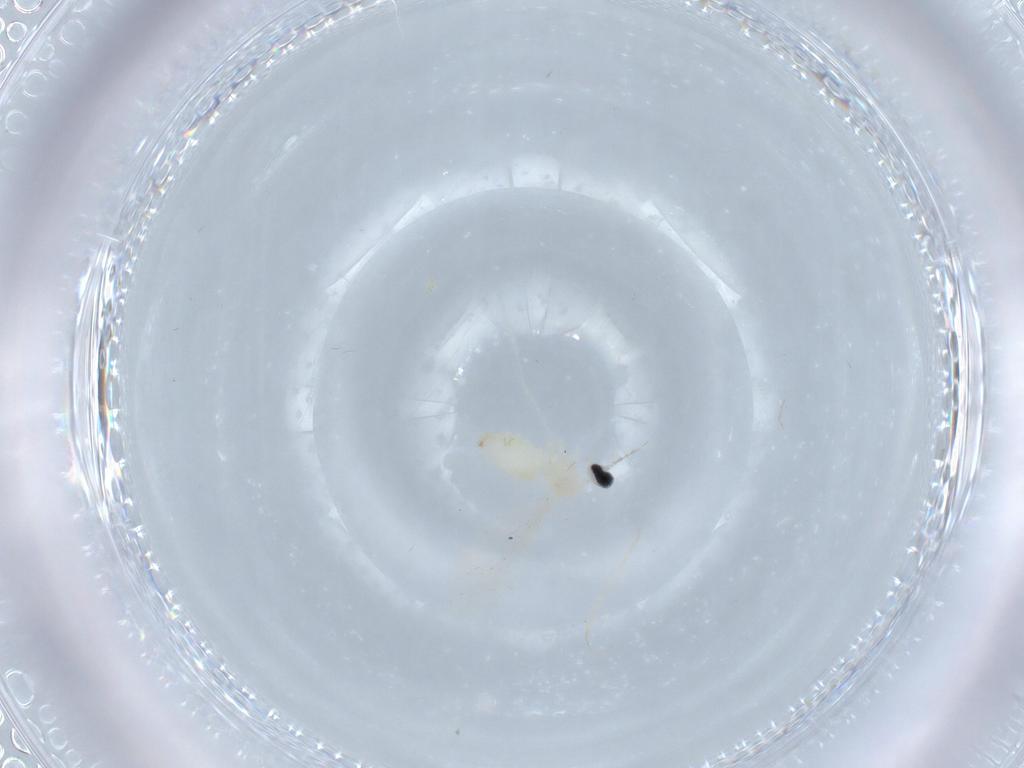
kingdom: Animalia
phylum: Arthropoda
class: Insecta
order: Diptera
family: Cecidomyiidae
